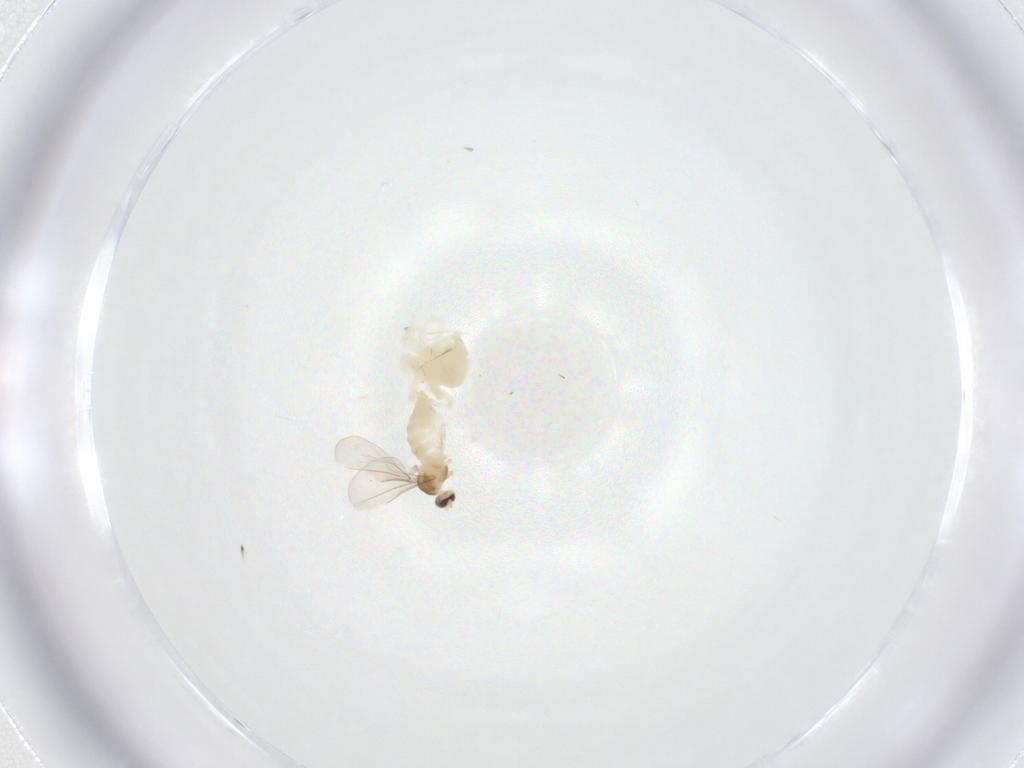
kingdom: Animalia
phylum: Arthropoda
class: Insecta
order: Diptera
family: Cecidomyiidae
